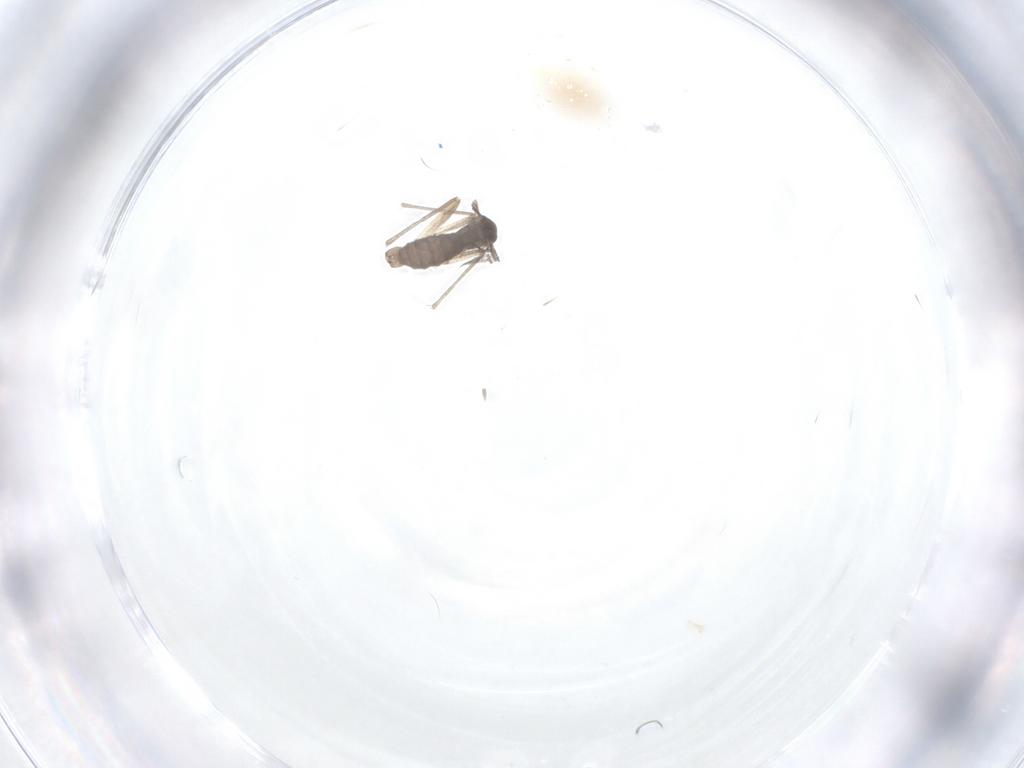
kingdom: Animalia
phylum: Arthropoda
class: Insecta
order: Diptera
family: Sciaridae
